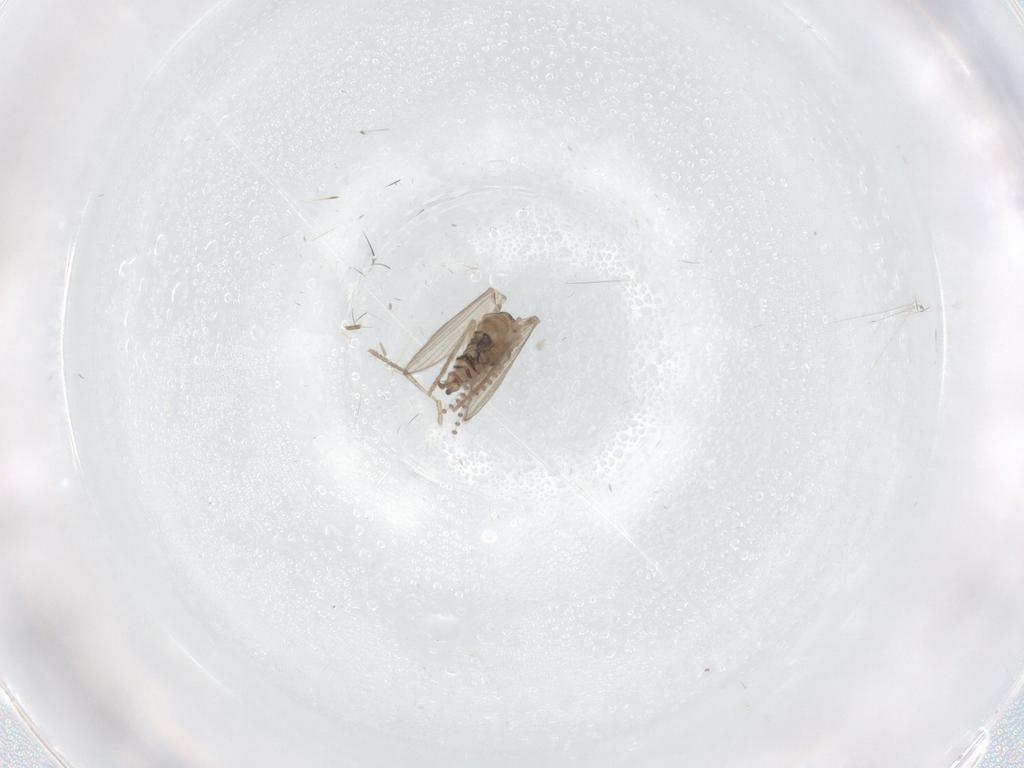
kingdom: Animalia
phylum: Arthropoda
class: Insecta
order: Diptera
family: Psychodidae
